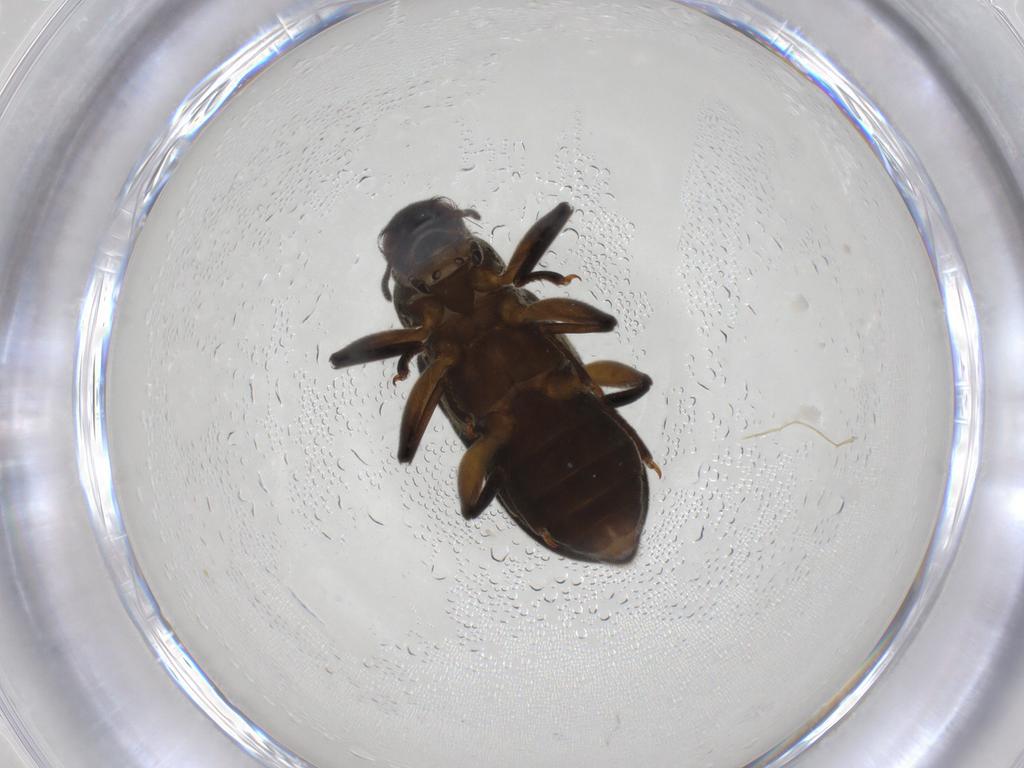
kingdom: Animalia
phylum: Arthropoda
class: Insecta
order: Coleoptera
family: Elmidae
